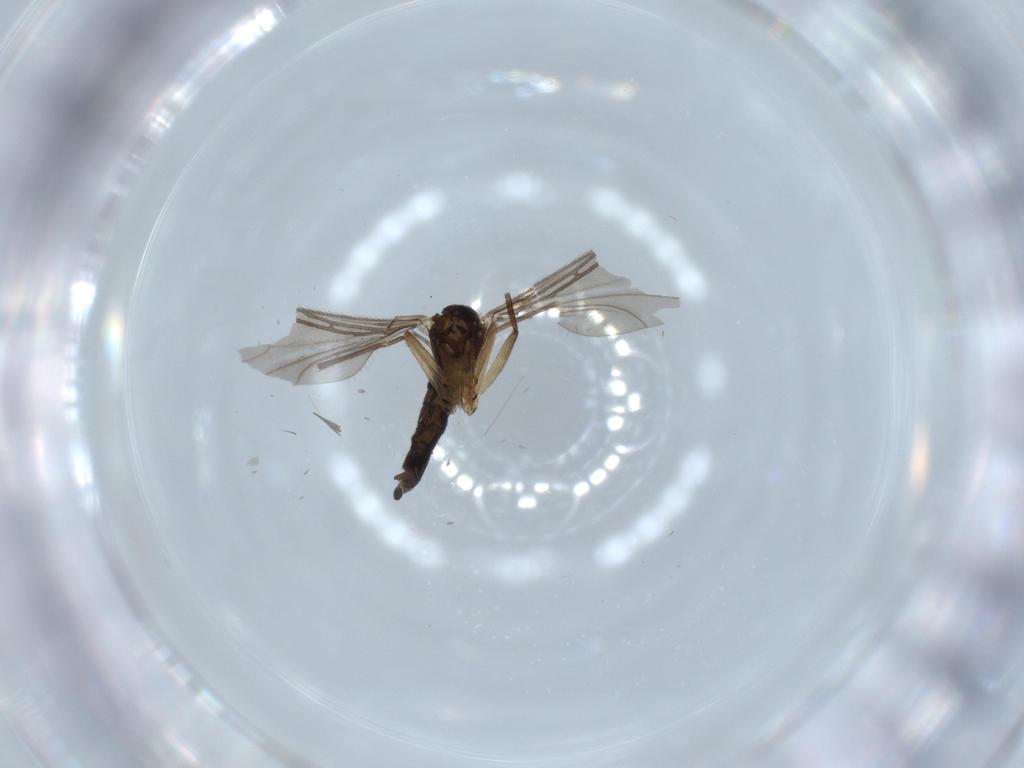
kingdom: Animalia
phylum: Arthropoda
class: Insecta
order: Diptera
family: Sciaridae
